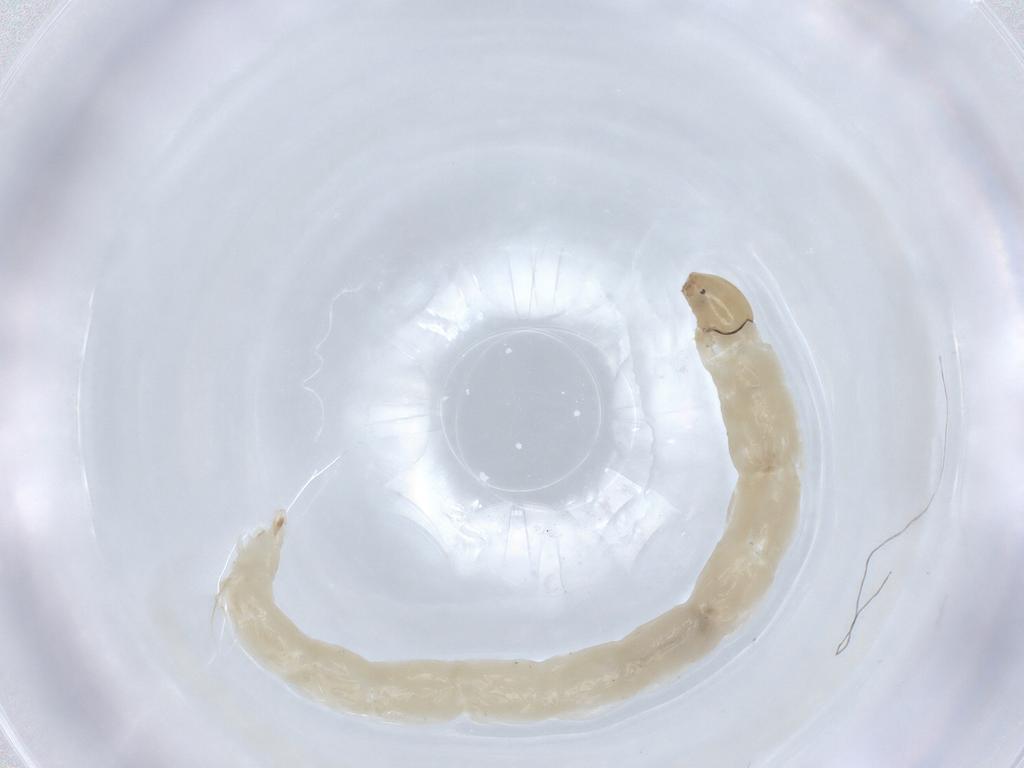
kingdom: Animalia
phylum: Arthropoda
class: Insecta
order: Diptera
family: Chironomidae
